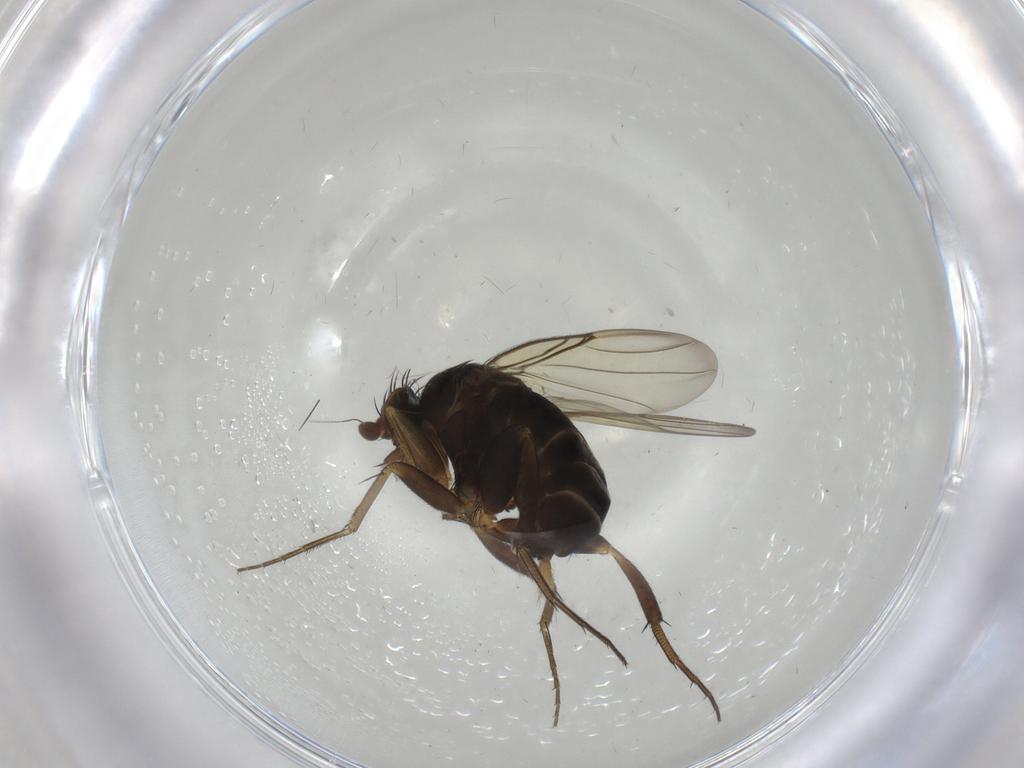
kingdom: Animalia
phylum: Arthropoda
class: Insecta
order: Diptera
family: Phoridae
